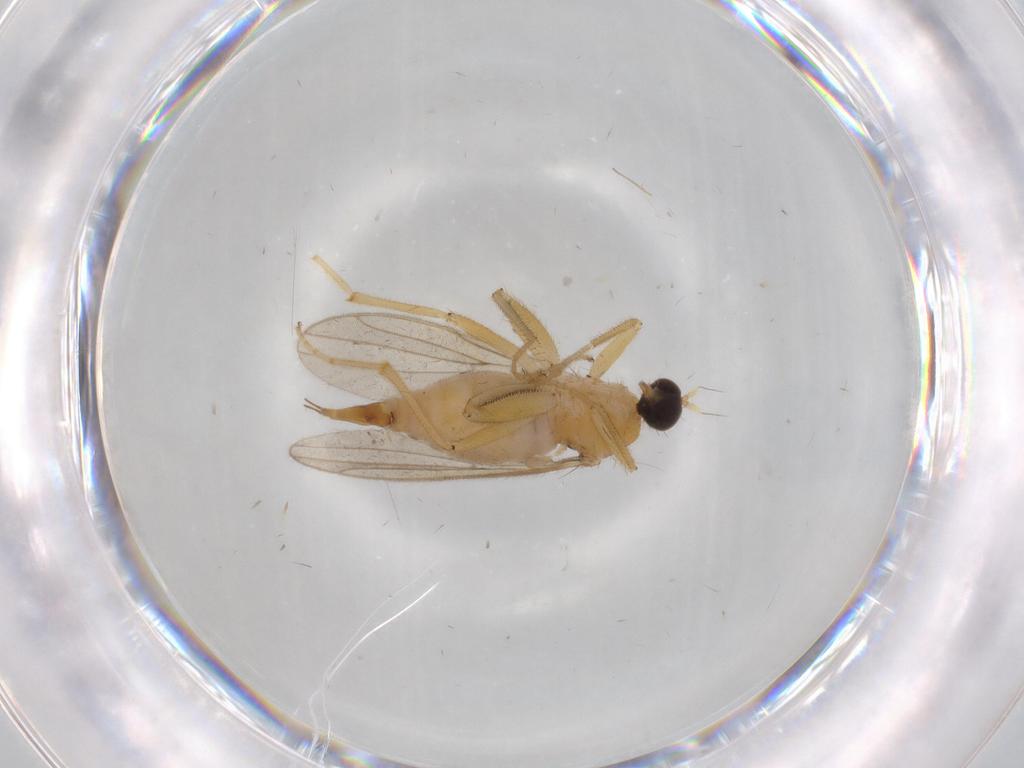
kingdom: Animalia
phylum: Arthropoda
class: Insecta
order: Diptera
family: Hybotidae
